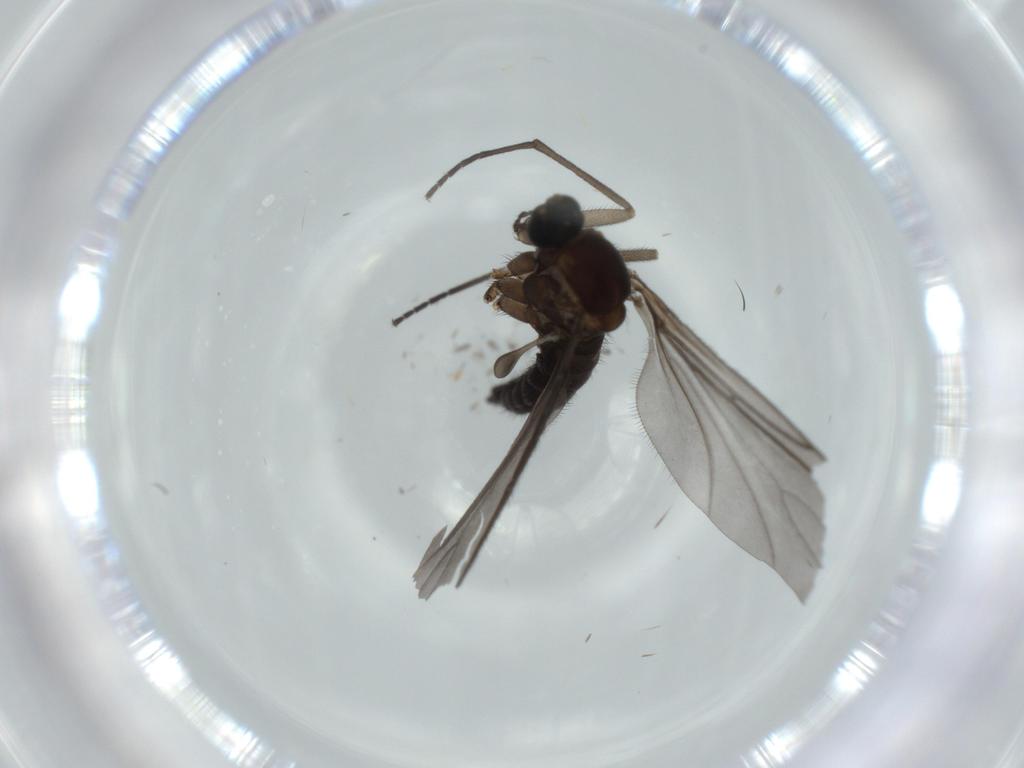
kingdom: Animalia
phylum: Arthropoda
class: Insecta
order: Diptera
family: Sciaridae
